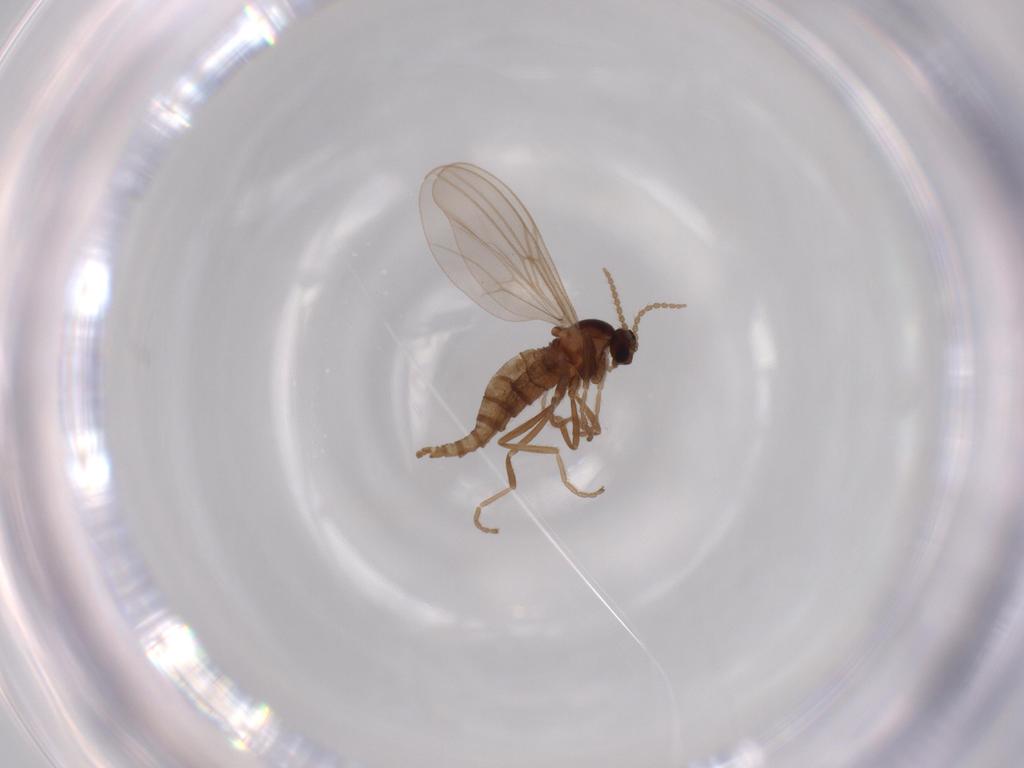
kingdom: Animalia
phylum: Arthropoda
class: Insecta
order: Diptera
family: Cecidomyiidae
